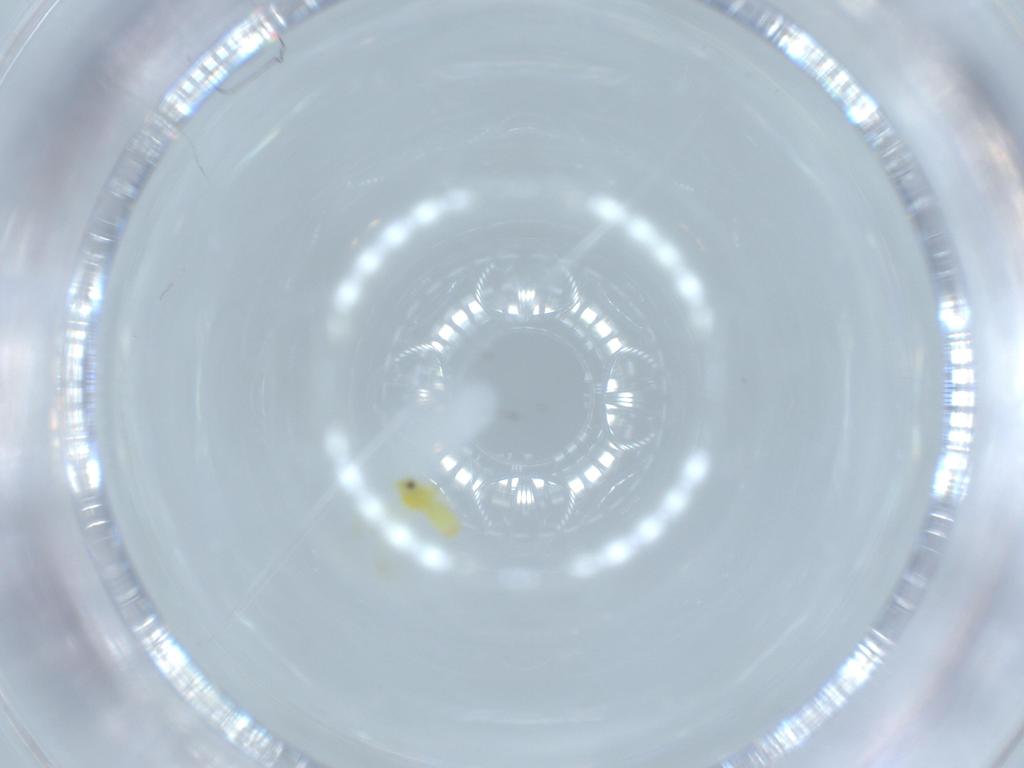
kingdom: Animalia
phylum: Arthropoda
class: Insecta
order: Hemiptera
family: Aleyrodidae
